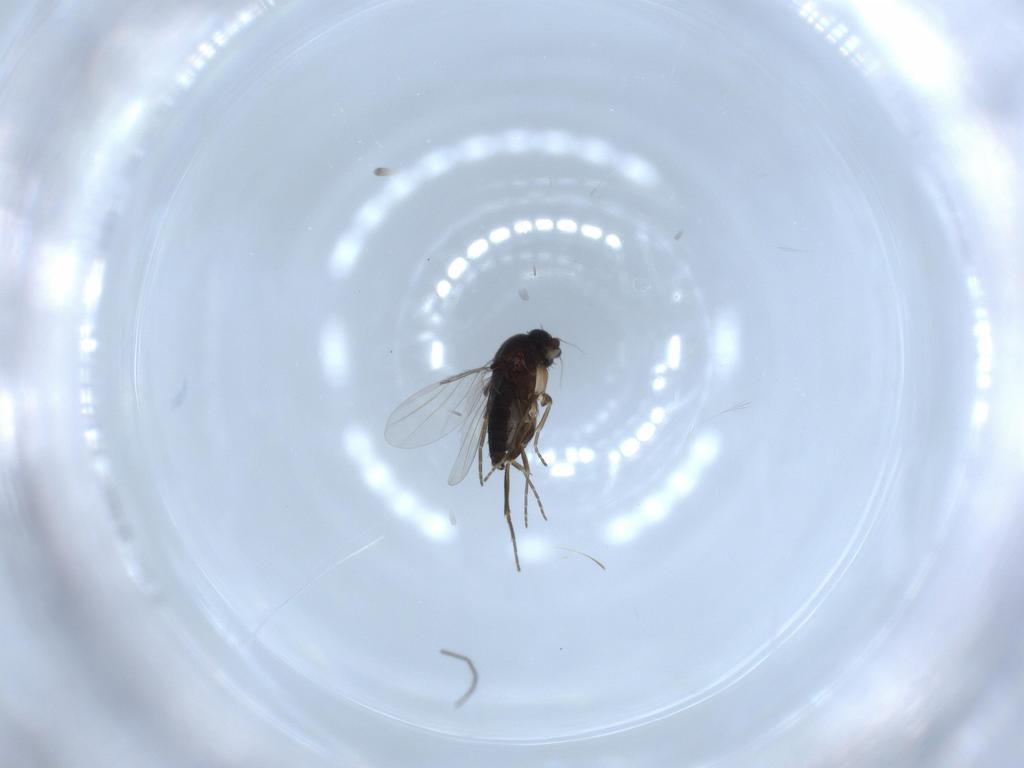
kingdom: Animalia
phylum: Arthropoda
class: Insecta
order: Diptera
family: Phoridae
